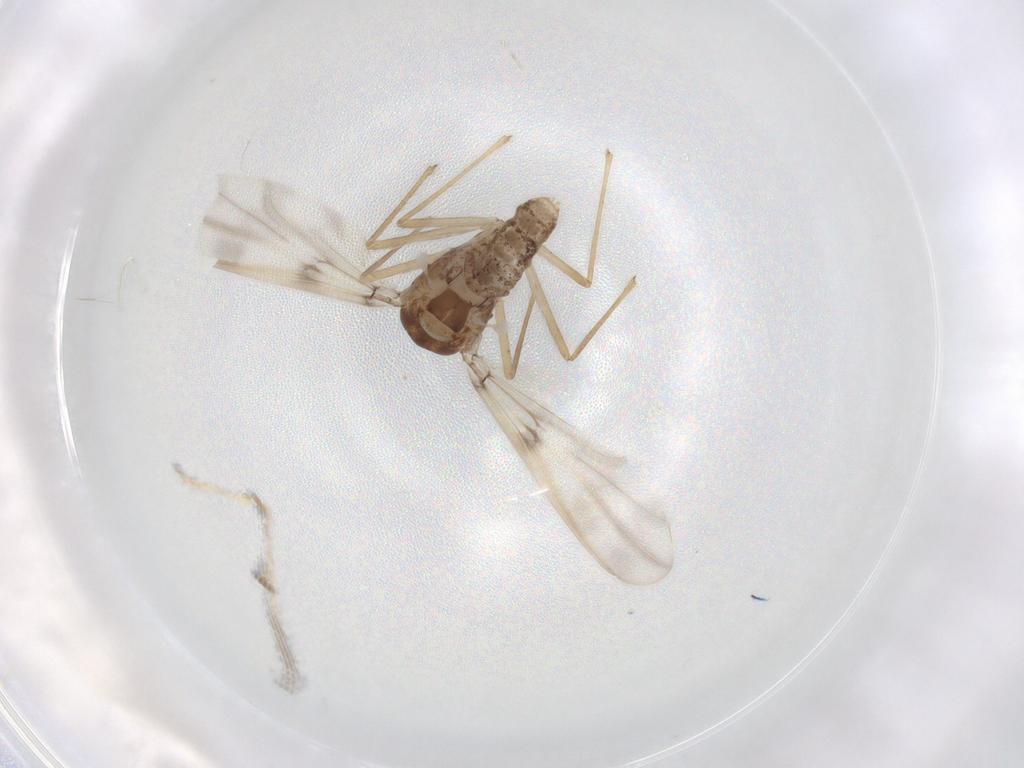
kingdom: Animalia
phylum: Arthropoda
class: Insecta
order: Diptera
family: Chironomidae
